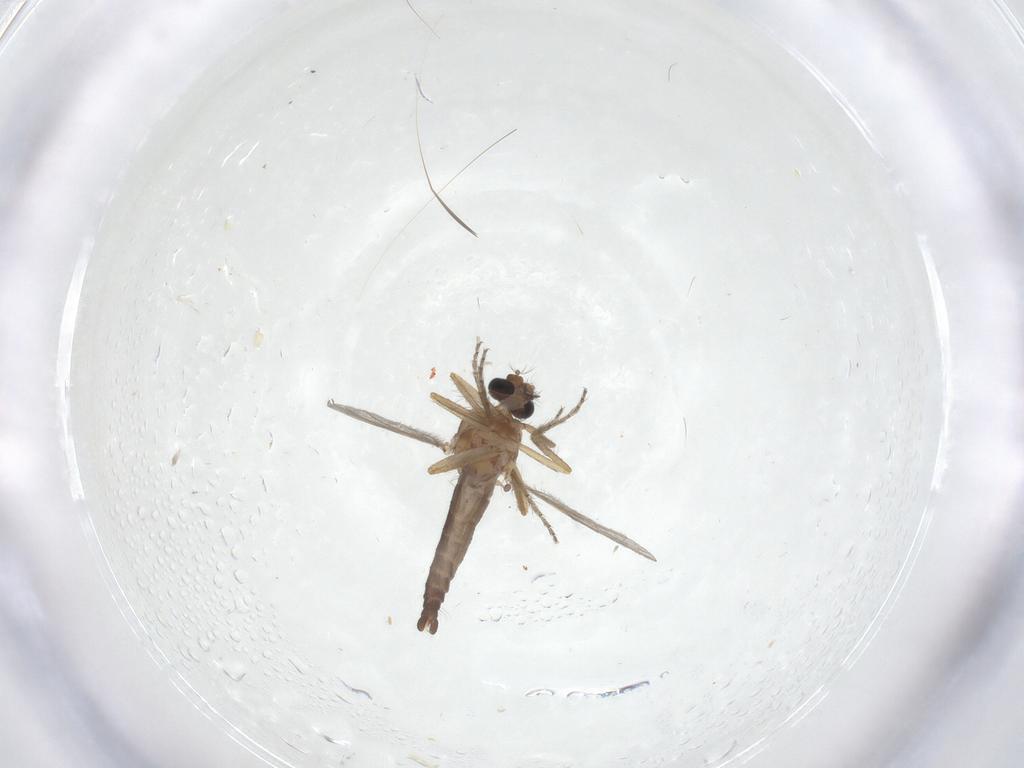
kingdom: Animalia
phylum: Arthropoda
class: Insecta
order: Diptera
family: Ceratopogonidae
